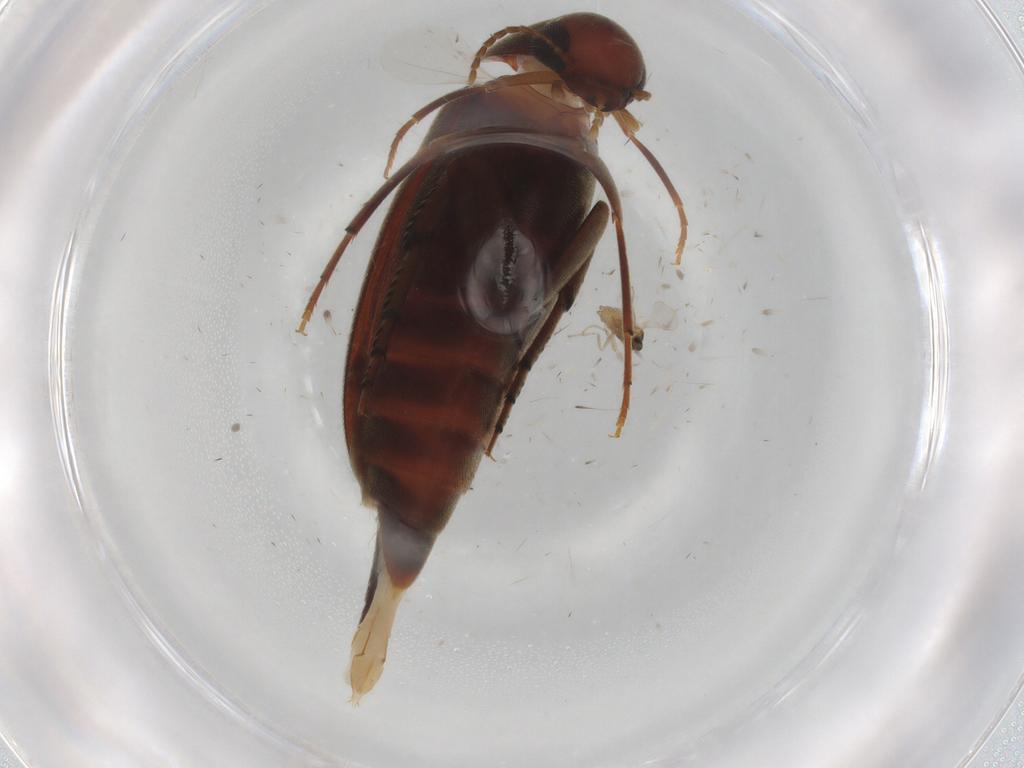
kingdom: Animalia
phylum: Arthropoda
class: Insecta
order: Coleoptera
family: Mordellidae
